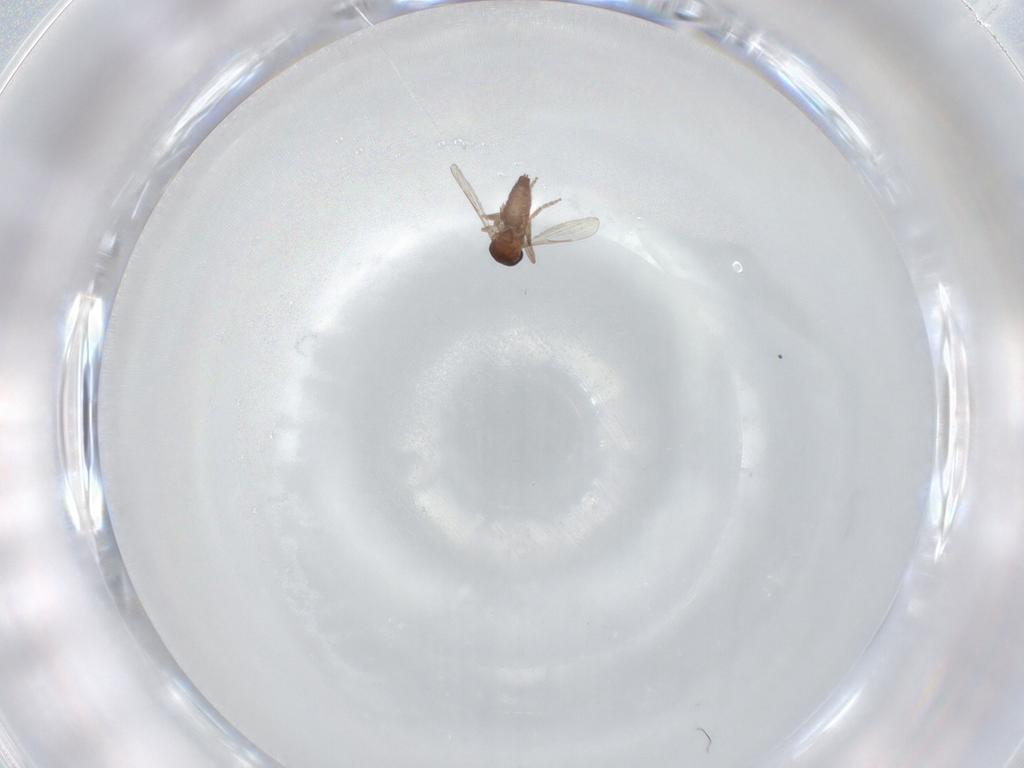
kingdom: Animalia
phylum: Arthropoda
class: Insecta
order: Diptera
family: Ceratopogonidae
